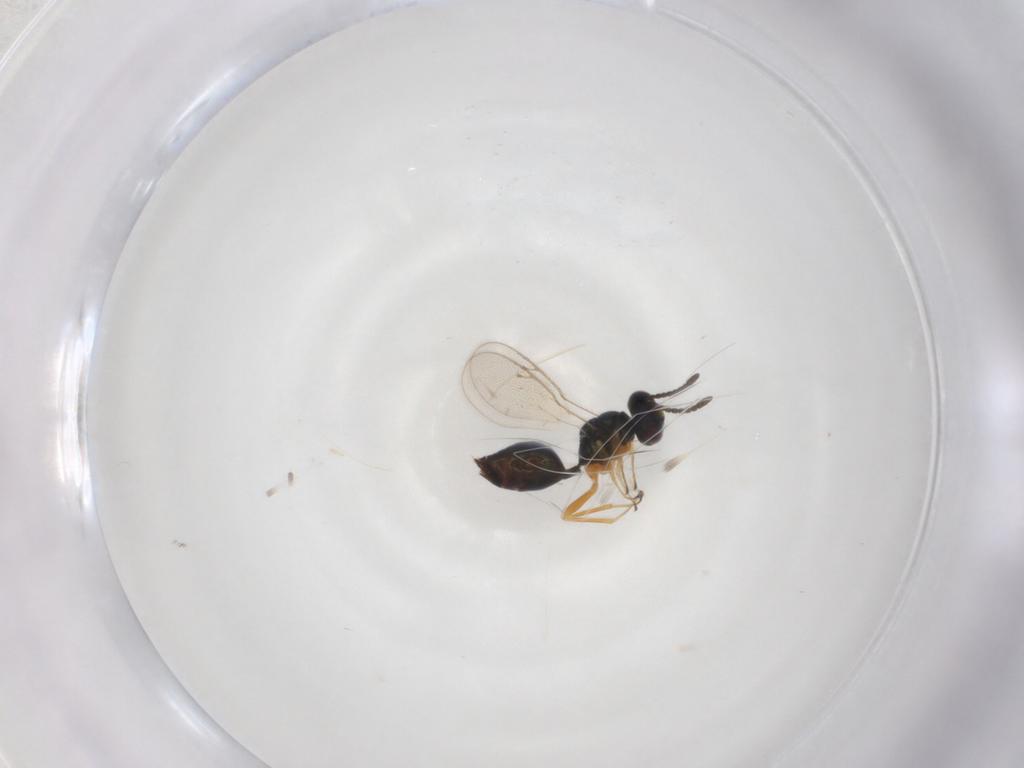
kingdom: Animalia
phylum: Arthropoda
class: Insecta
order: Hymenoptera
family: Pteromalidae
